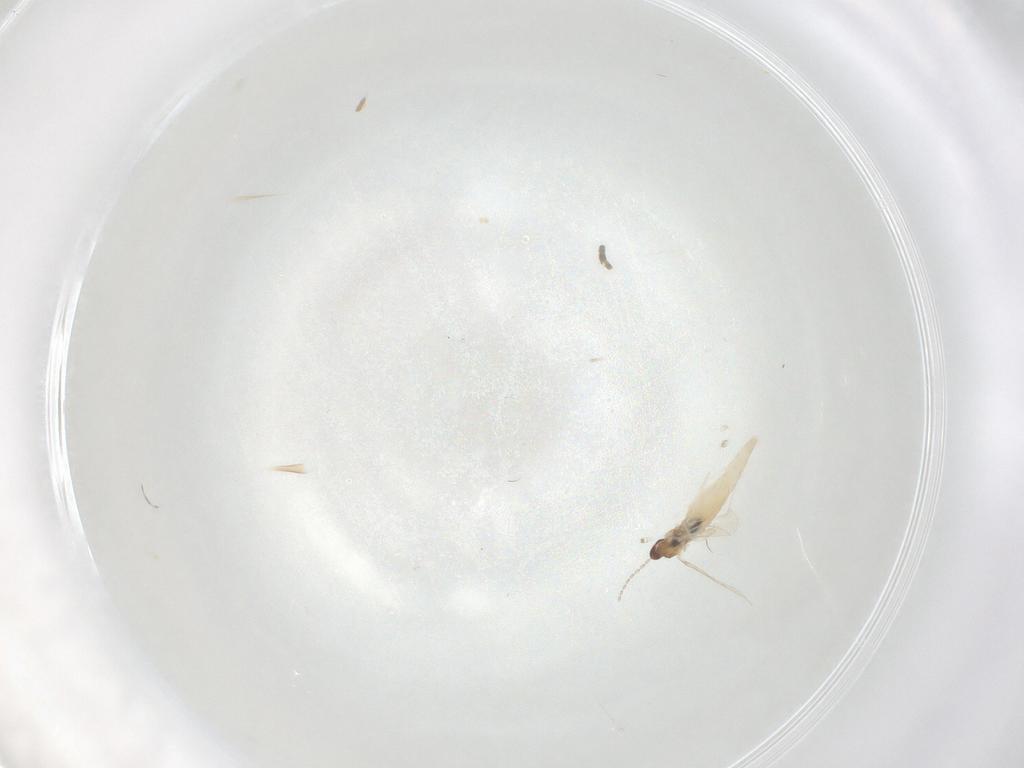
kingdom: Animalia
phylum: Arthropoda
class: Insecta
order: Diptera
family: Cecidomyiidae
